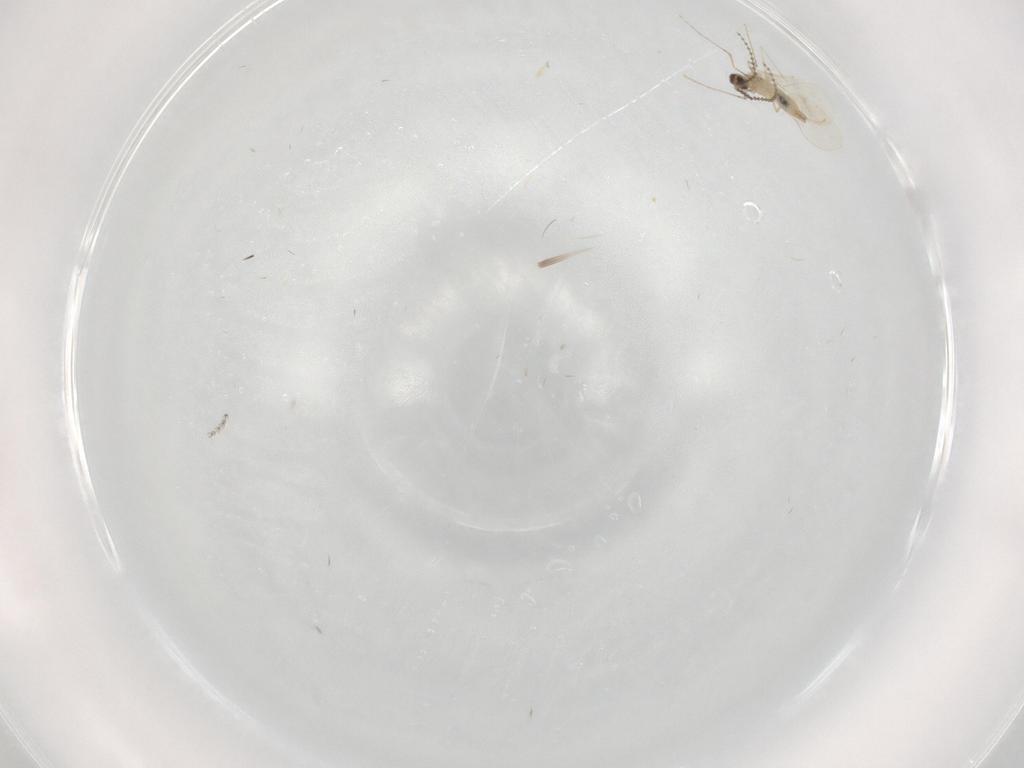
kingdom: Animalia
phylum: Arthropoda
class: Insecta
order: Diptera
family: Cecidomyiidae
